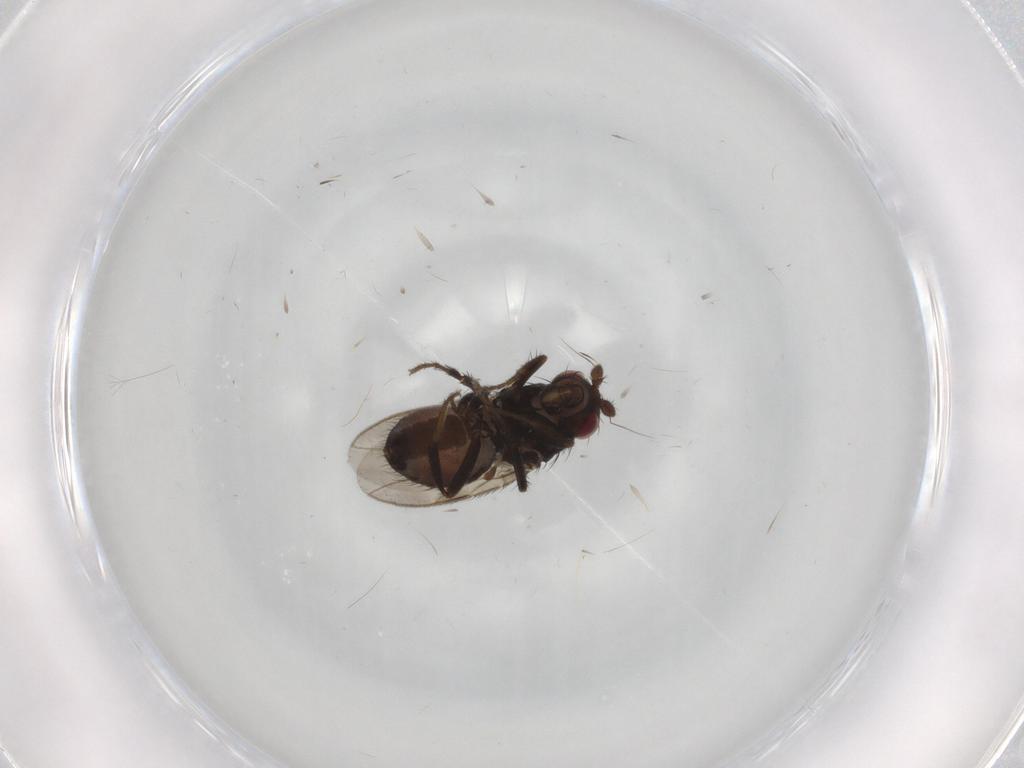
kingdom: Animalia
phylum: Arthropoda
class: Insecta
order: Diptera
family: Sphaeroceridae
